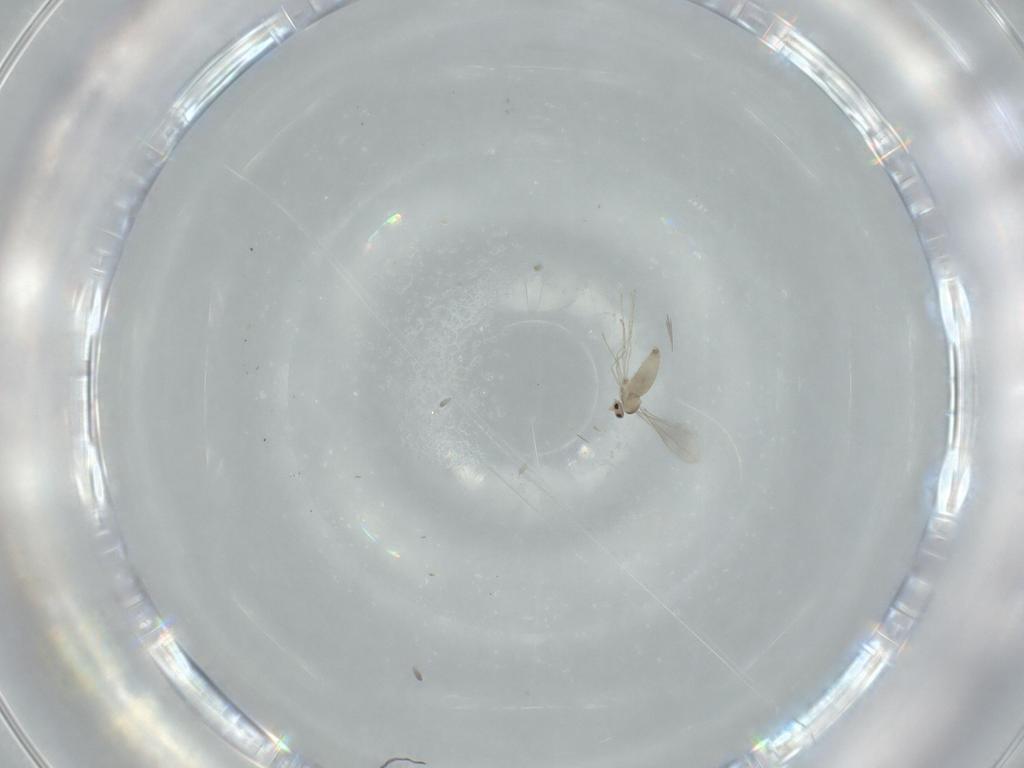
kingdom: Animalia
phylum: Arthropoda
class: Insecta
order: Diptera
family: Cecidomyiidae
